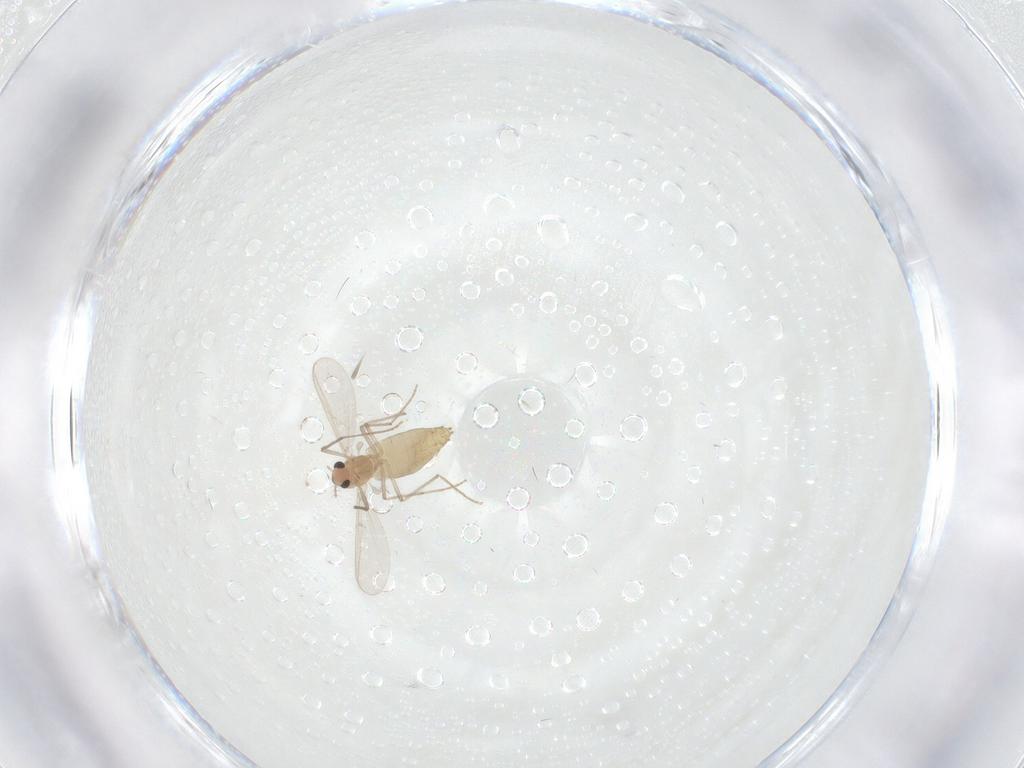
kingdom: Animalia
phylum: Arthropoda
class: Insecta
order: Diptera
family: Chironomidae
